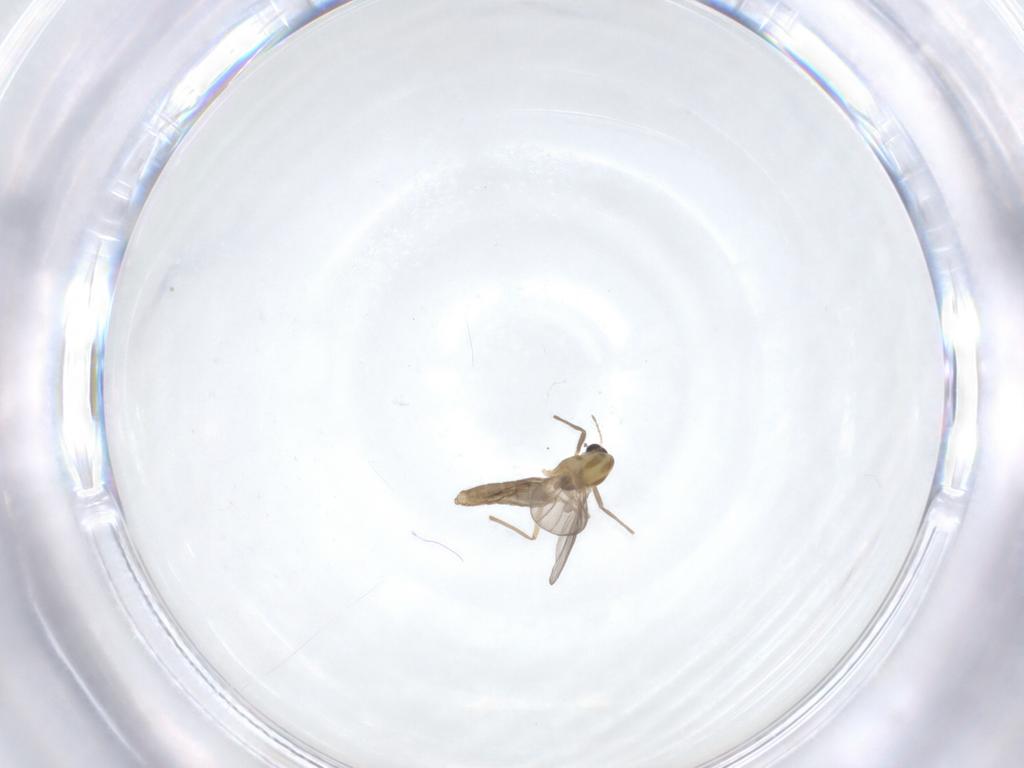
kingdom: Animalia
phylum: Arthropoda
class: Insecta
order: Diptera
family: Chironomidae
